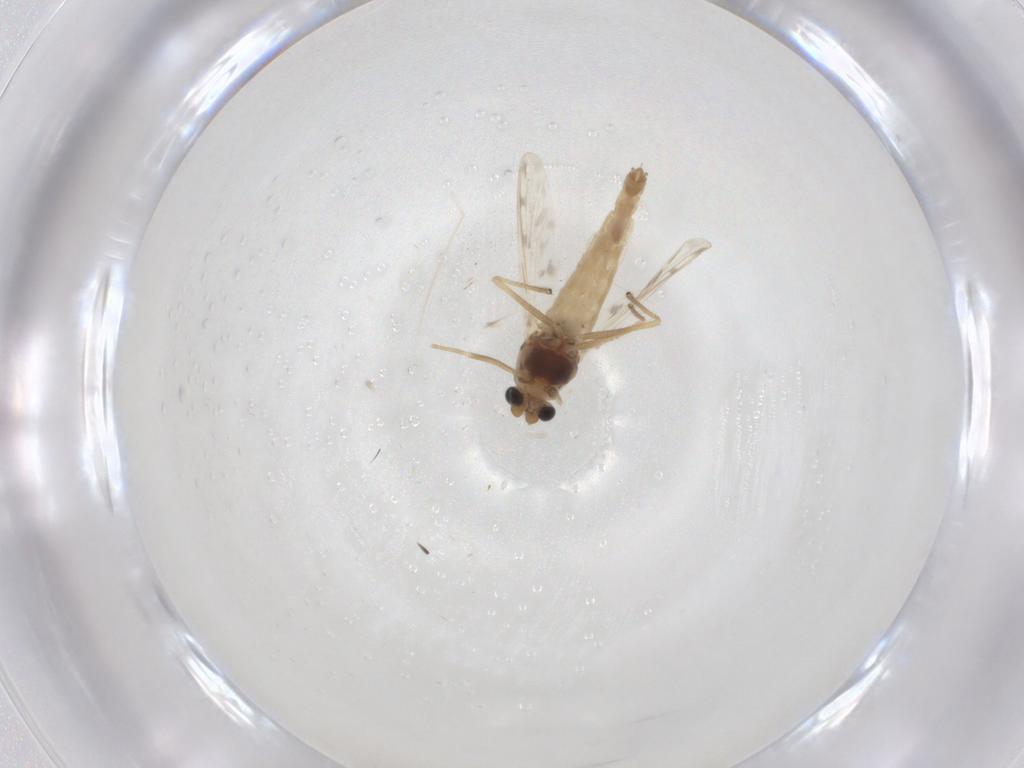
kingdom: Animalia
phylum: Arthropoda
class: Insecta
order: Diptera
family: Chironomidae
